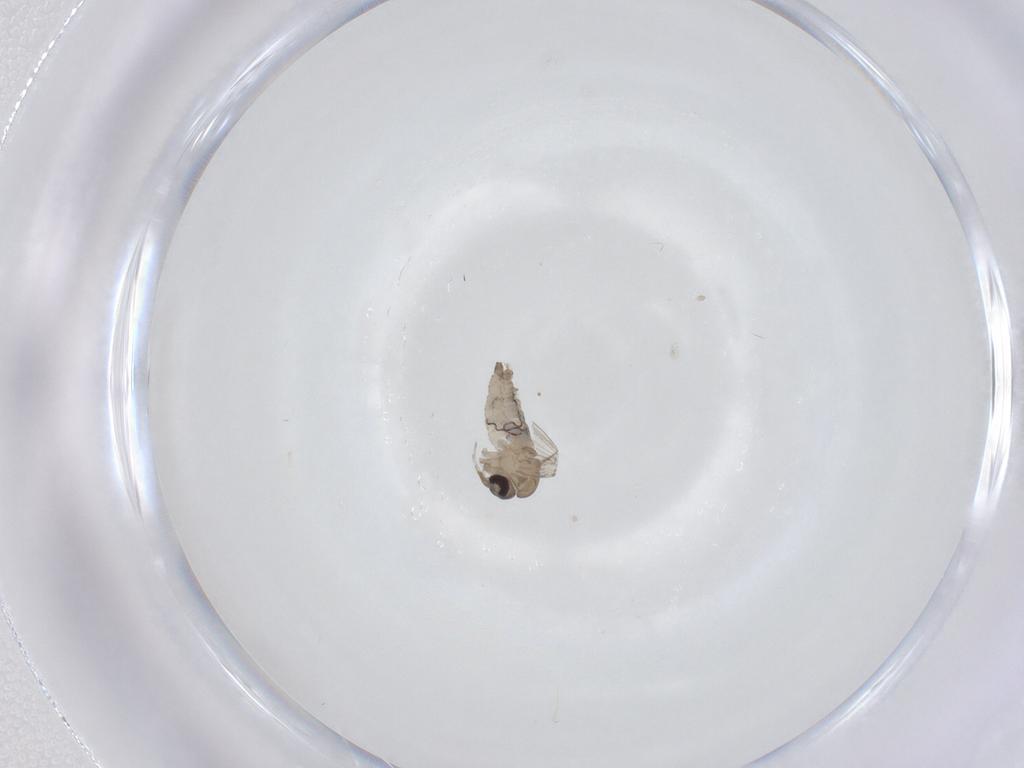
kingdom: Animalia
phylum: Arthropoda
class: Insecta
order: Diptera
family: Psychodidae
